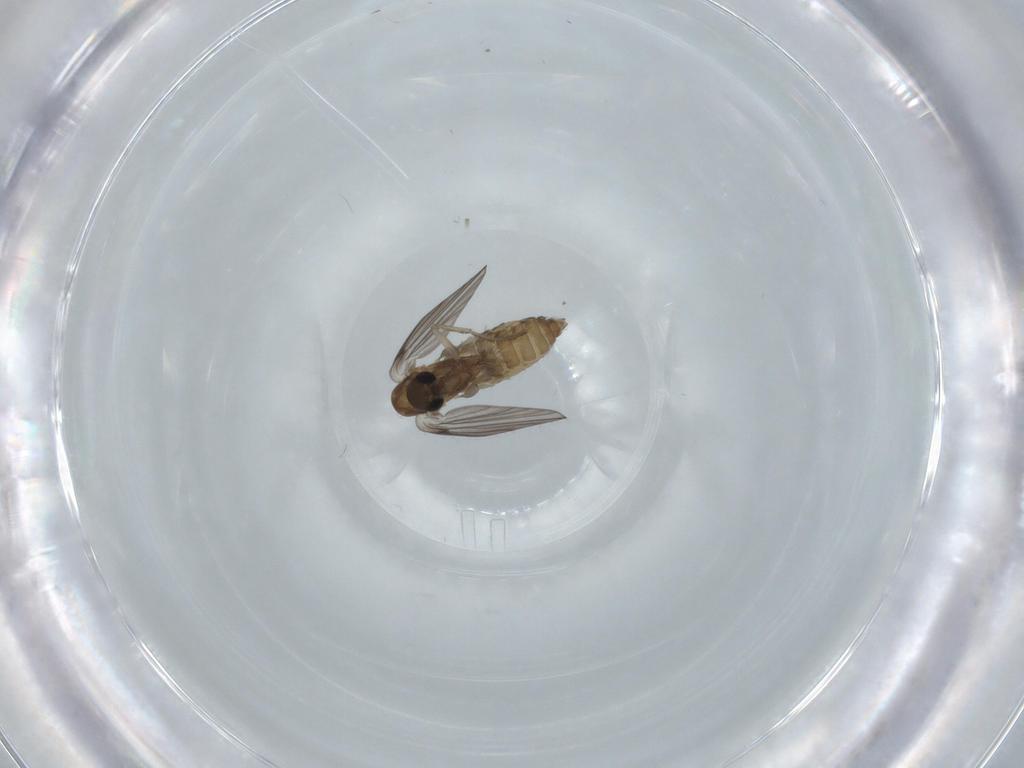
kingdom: Animalia
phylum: Arthropoda
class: Insecta
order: Diptera
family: Psychodidae
